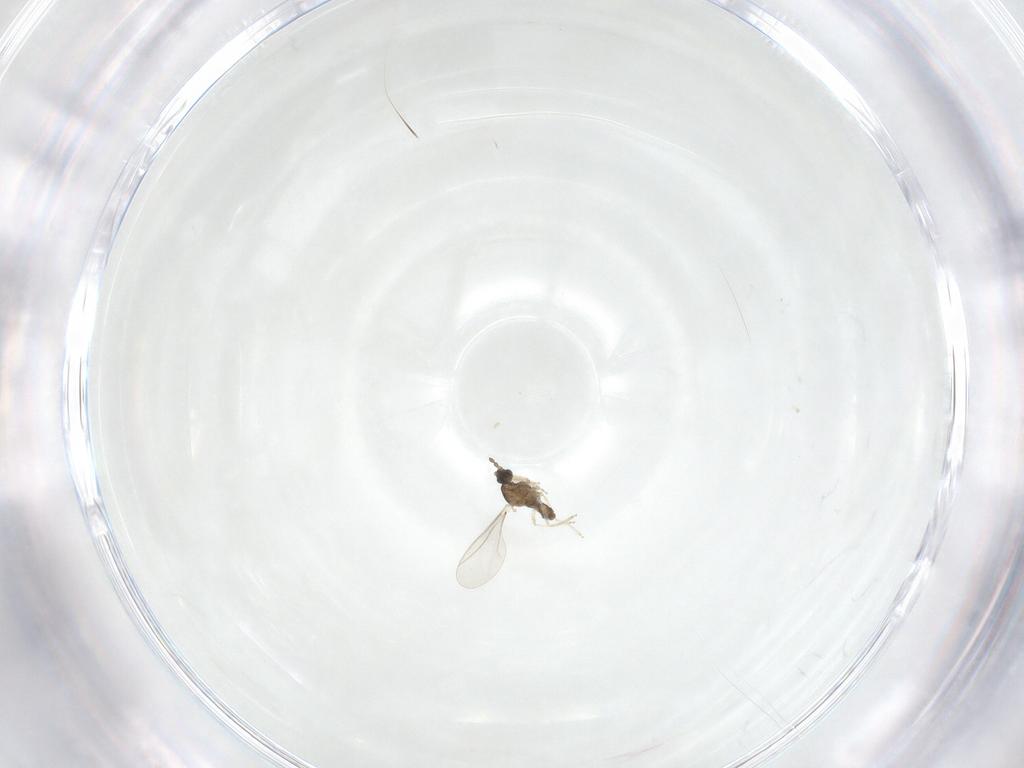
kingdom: Animalia
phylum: Arthropoda
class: Insecta
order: Diptera
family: Cecidomyiidae
